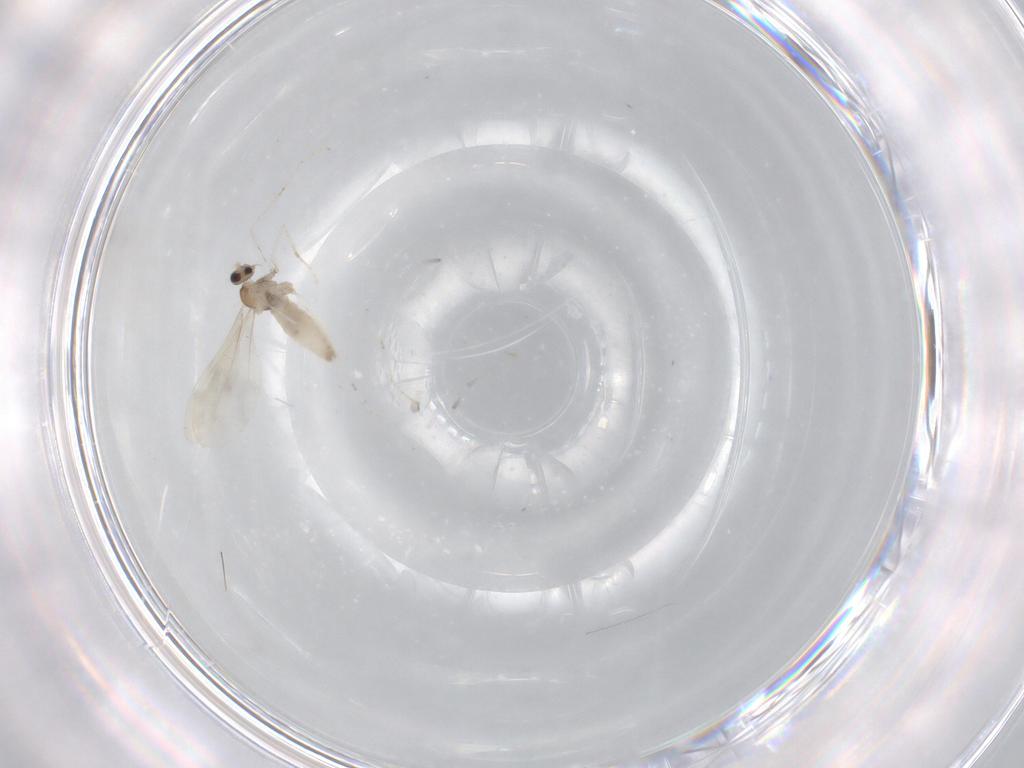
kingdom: Animalia
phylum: Arthropoda
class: Insecta
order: Diptera
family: Cecidomyiidae
